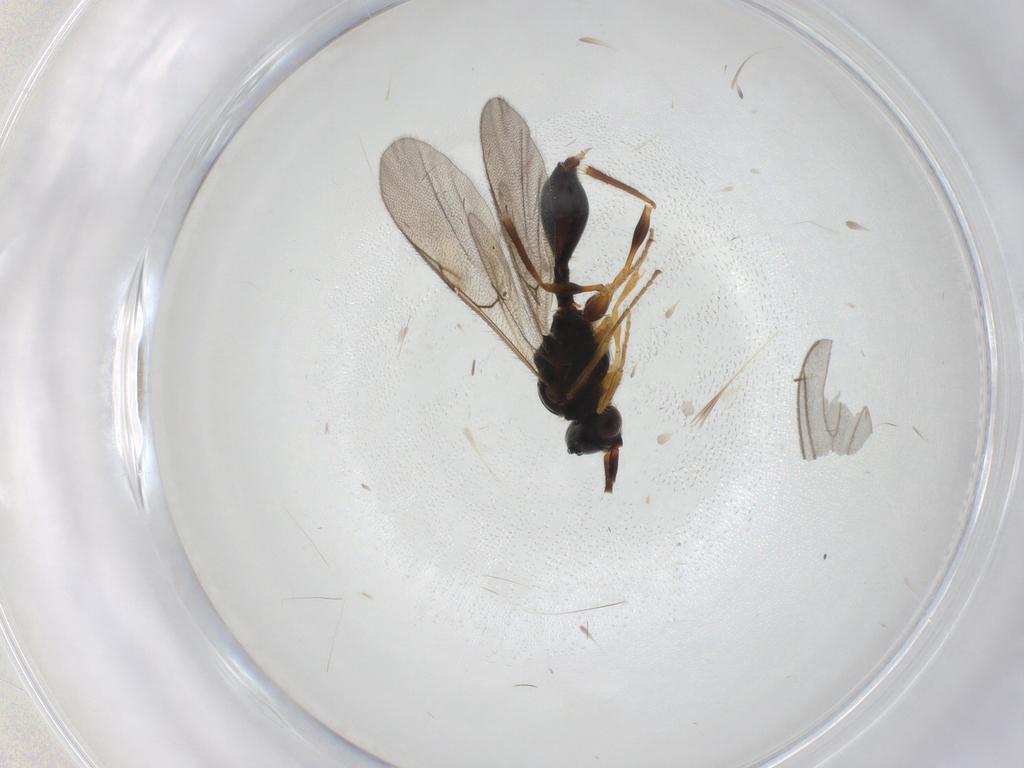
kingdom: Animalia
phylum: Arthropoda
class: Insecta
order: Hymenoptera
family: Diapriidae
